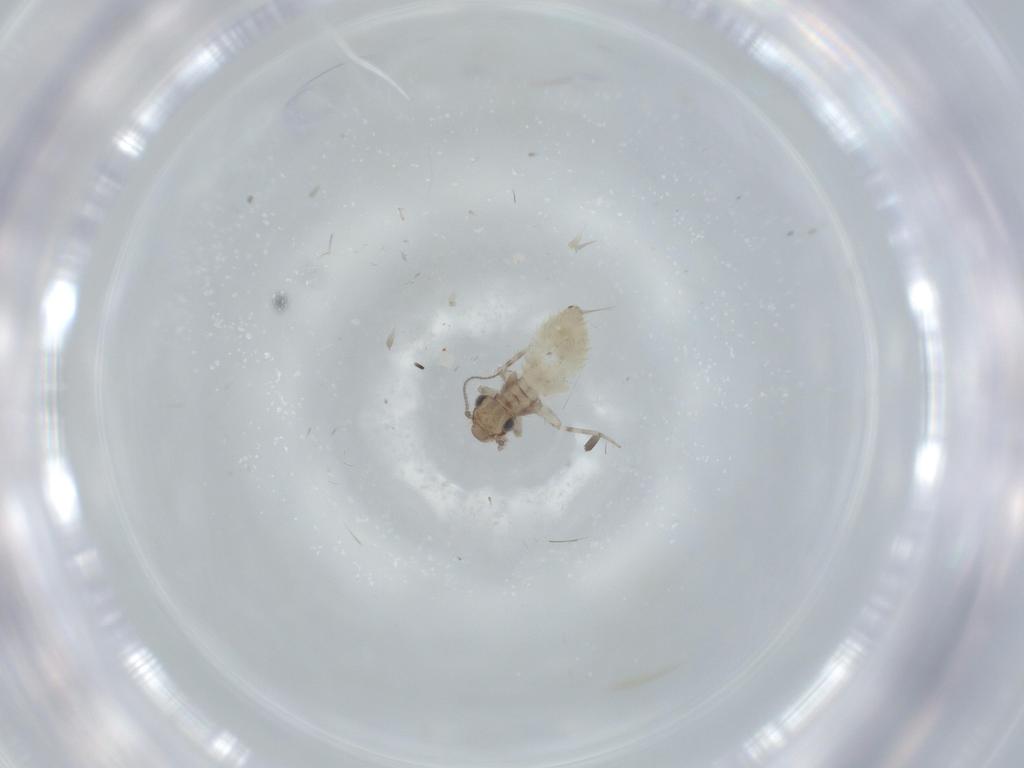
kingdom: Animalia
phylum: Arthropoda
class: Insecta
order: Psocodea
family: Lepidopsocidae
